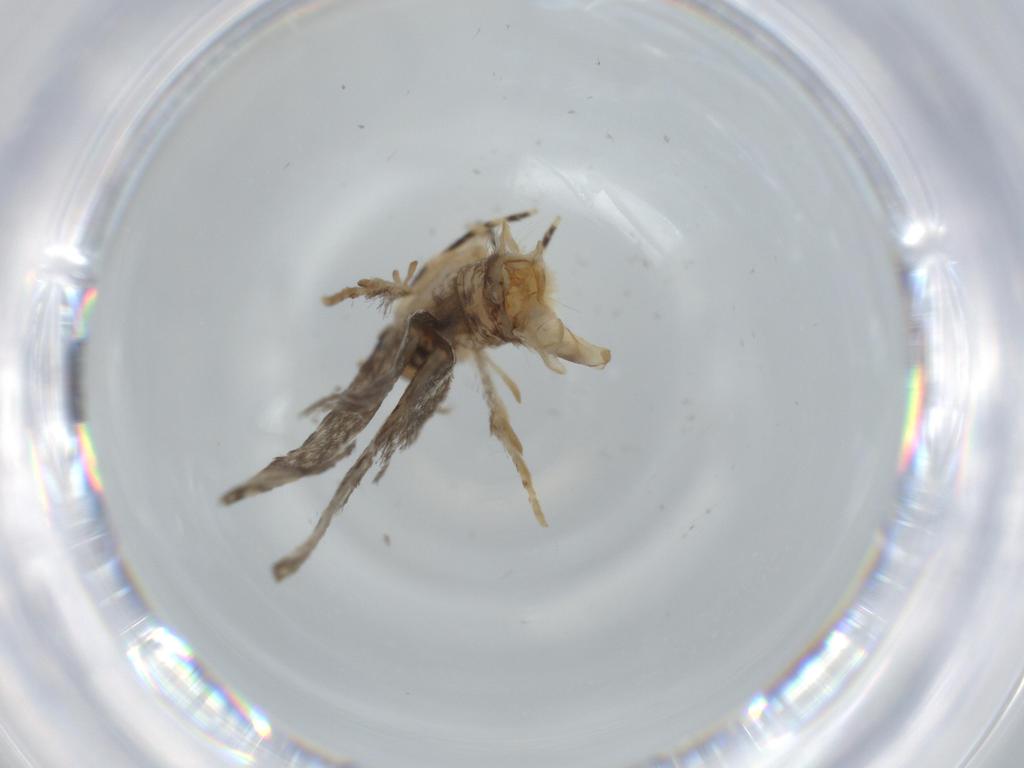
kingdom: Animalia
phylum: Arthropoda
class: Insecta
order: Lepidoptera
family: Tineidae
